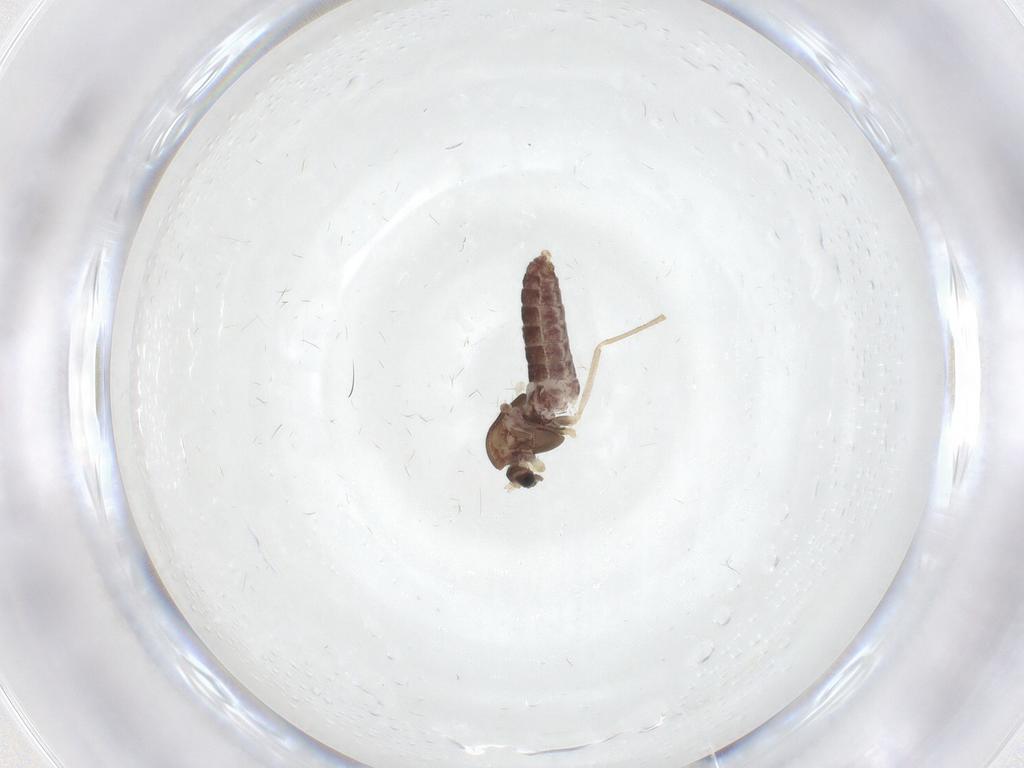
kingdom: Animalia
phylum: Arthropoda
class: Insecta
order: Diptera
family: Chironomidae
